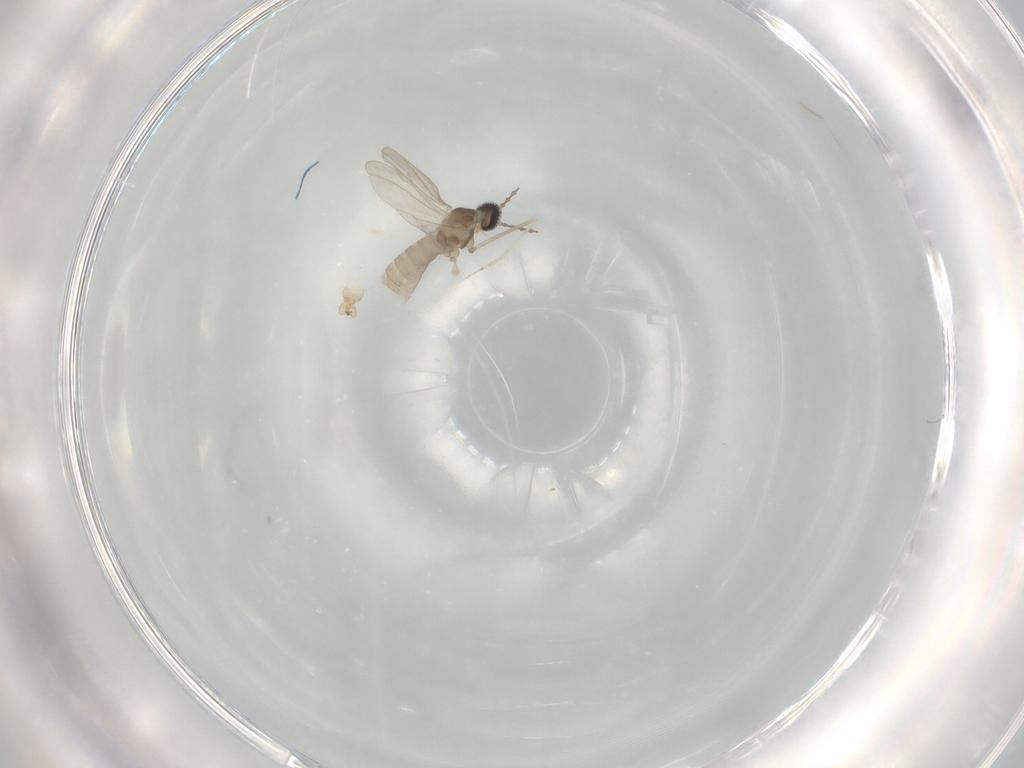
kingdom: Animalia
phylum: Arthropoda
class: Insecta
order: Diptera
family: Cecidomyiidae
